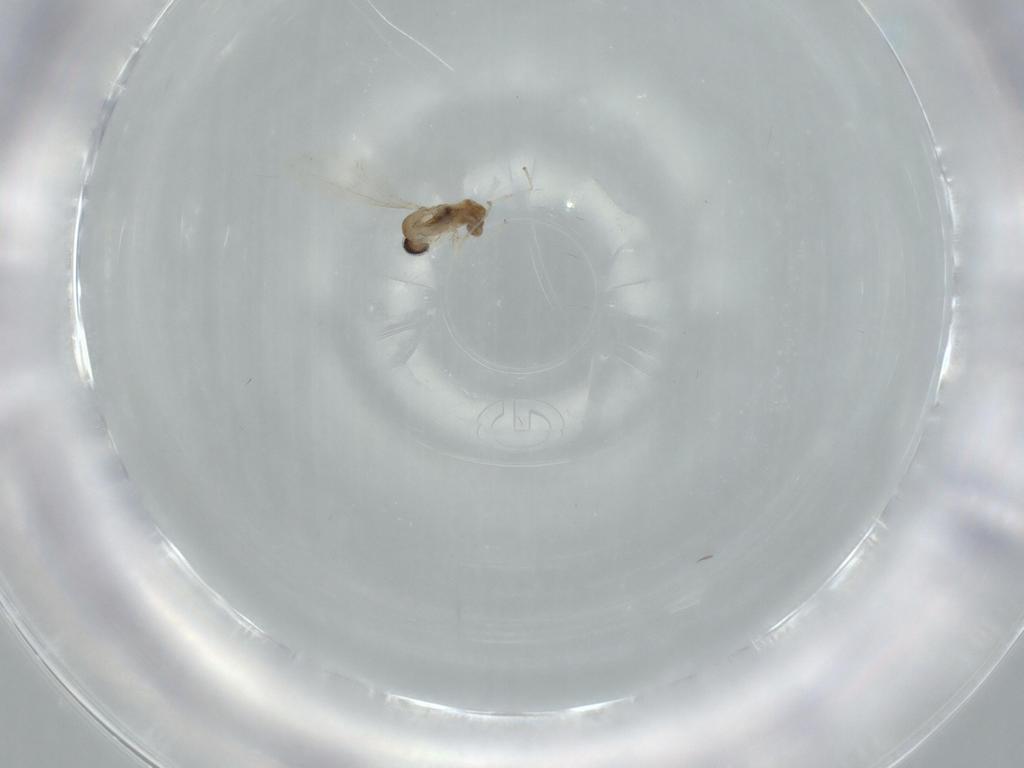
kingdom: Animalia
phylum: Arthropoda
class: Insecta
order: Diptera
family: Cecidomyiidae
